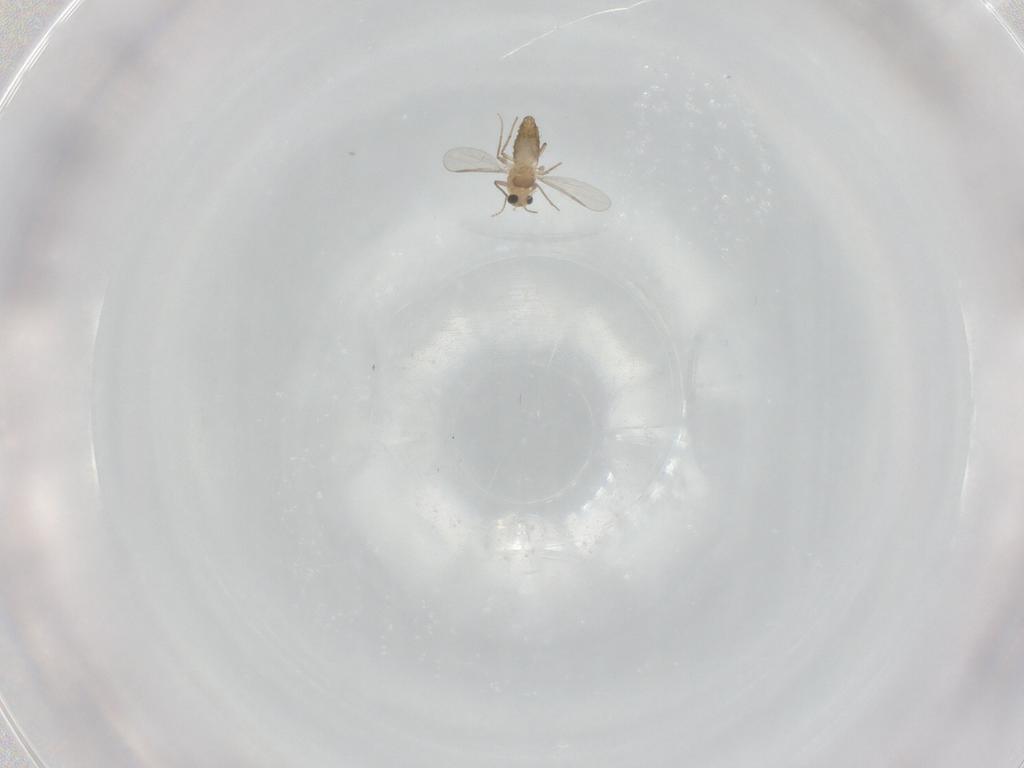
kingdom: Animalia
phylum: Arthropoda
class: Insecta
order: Diptera
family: Chironomidae
